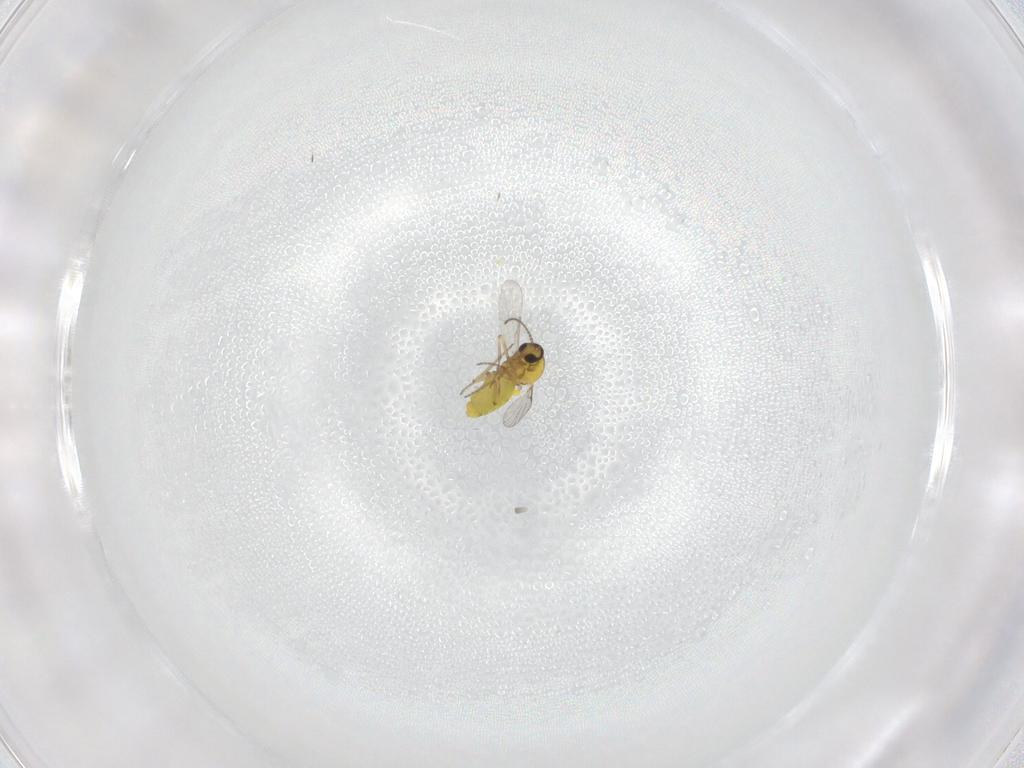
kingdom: Animalia
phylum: Arthropoda
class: Insecta
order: Diptera
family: Ceratopogonidae
